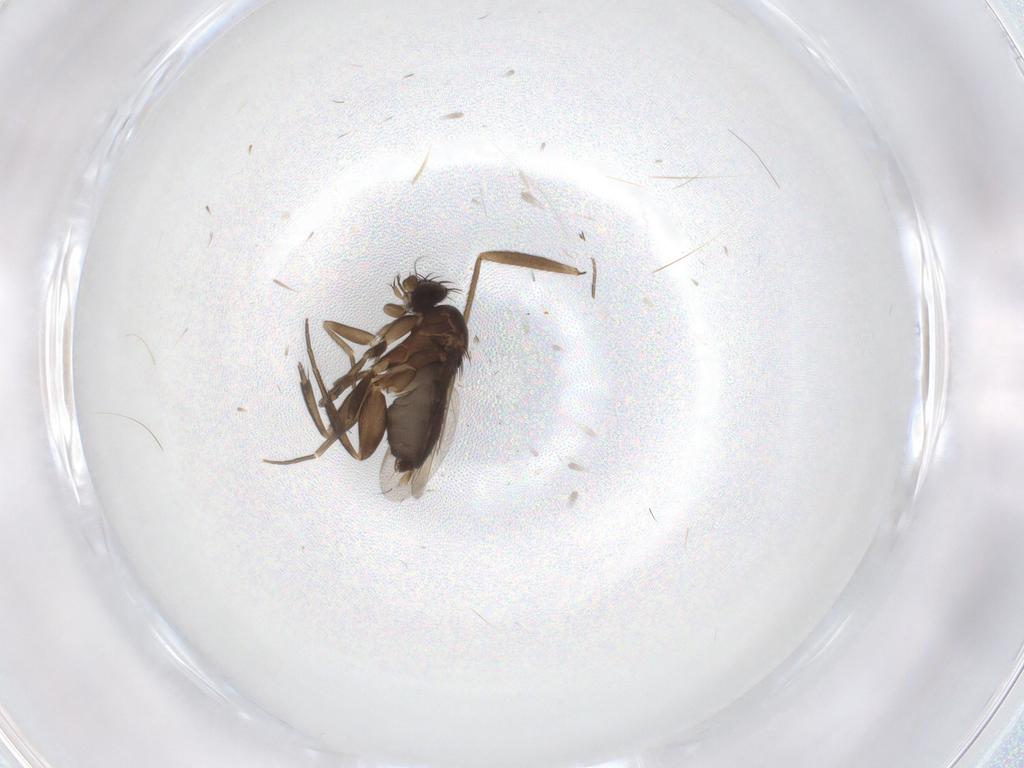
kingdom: Animalia
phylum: Arthropoda
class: Insecta
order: Diptera
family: Phoridae
